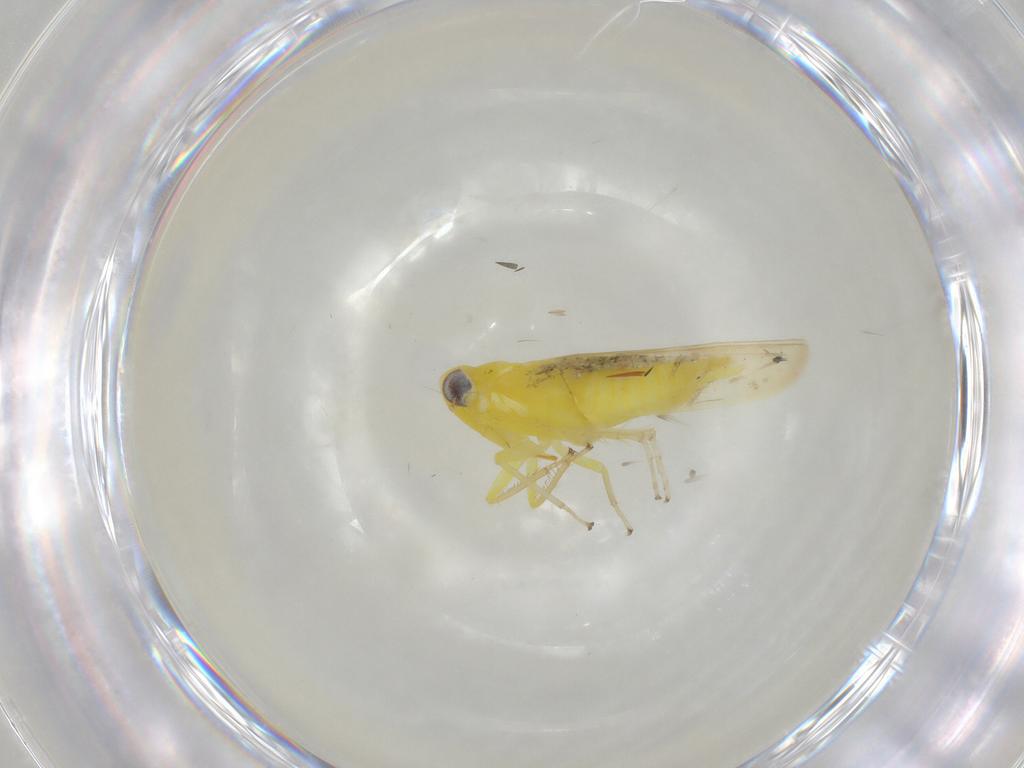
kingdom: Animalia
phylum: Arthropoda
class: Insecta
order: Hemiptera
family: Cicadellidae
